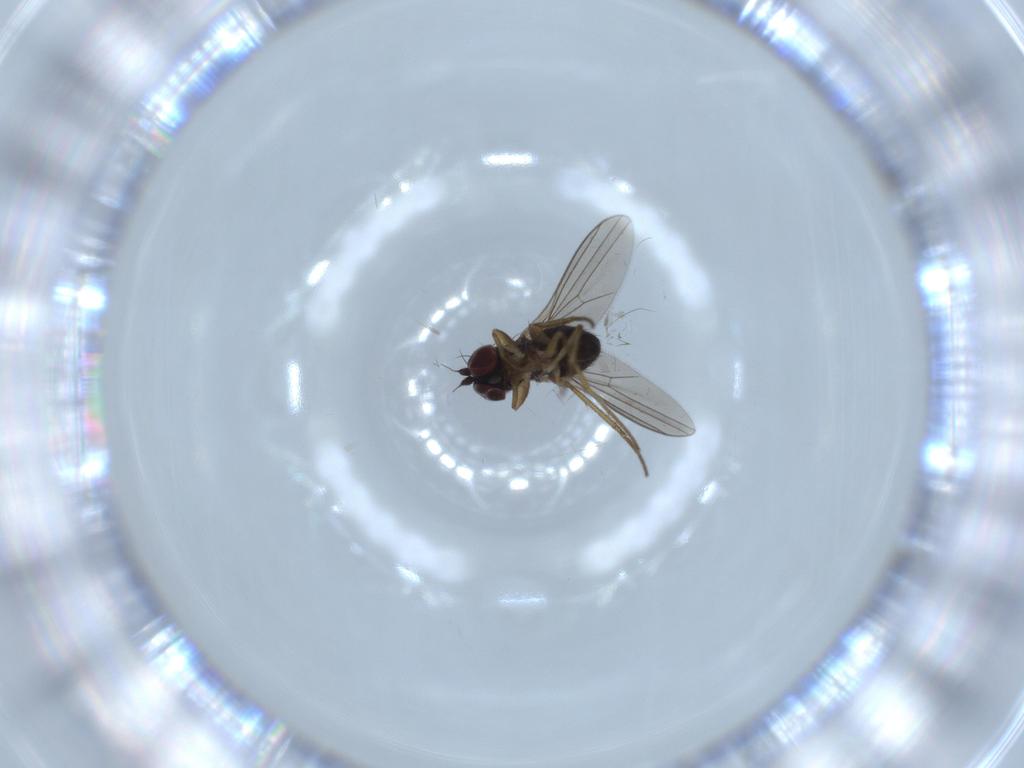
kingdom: Animalia
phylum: Arthropoda
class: Insecta
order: Diptera
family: Dolichopodidae
